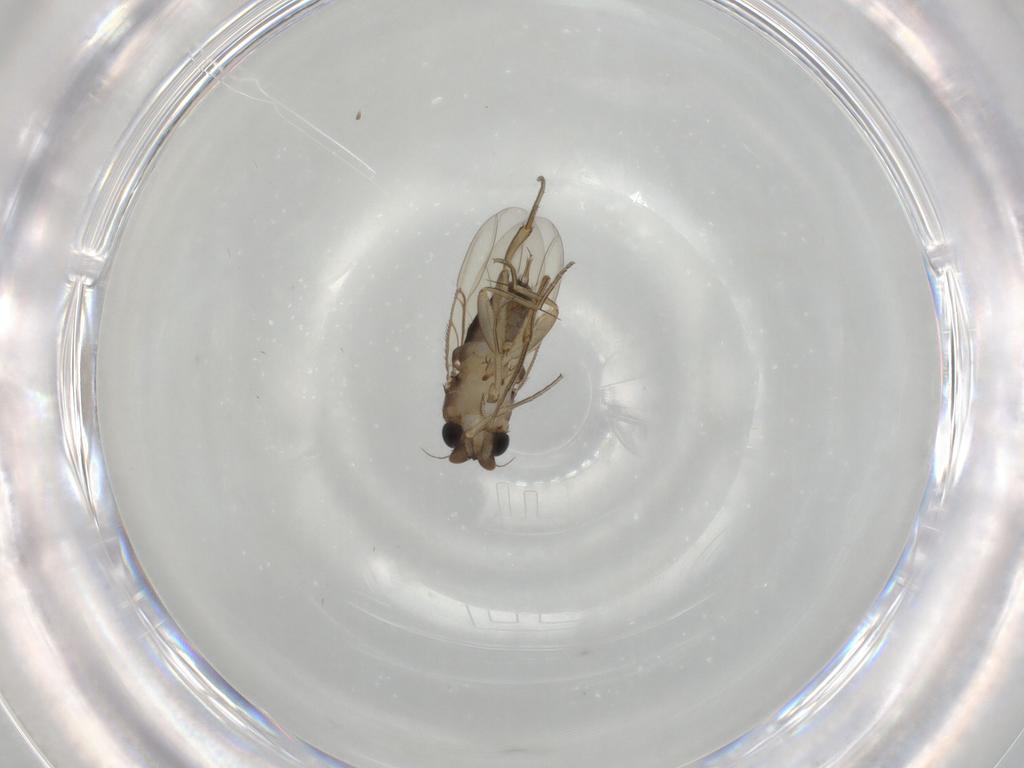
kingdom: Animalia
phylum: Arthropoda
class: Insecta
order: Diptera
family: Phoridae
